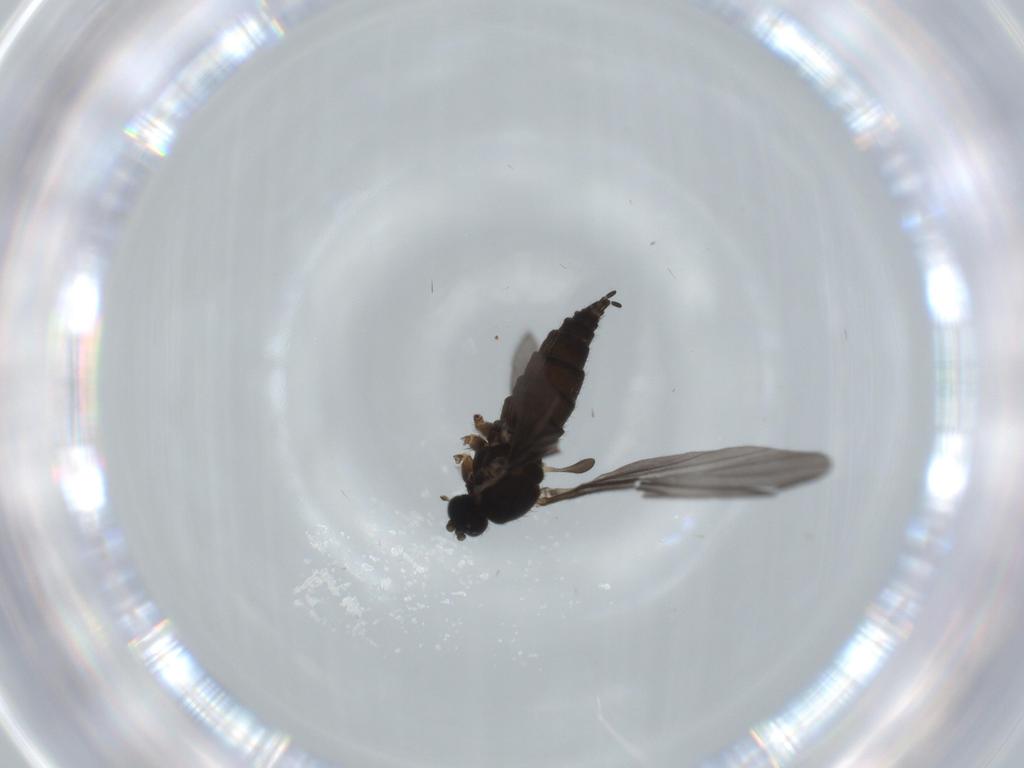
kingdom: Animalia
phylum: Arthropoda
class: Insecta
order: Diptera
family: Sciaridae
